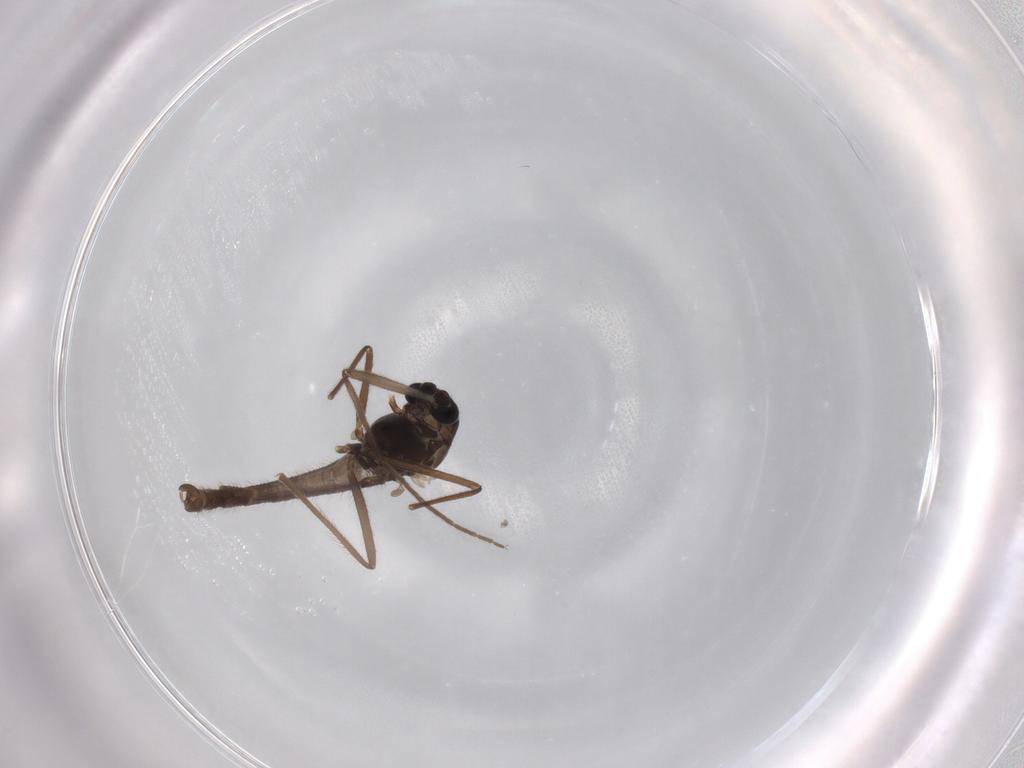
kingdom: Animalia
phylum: Arthropoda
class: Insecta
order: Diptera
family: Chironomidae
